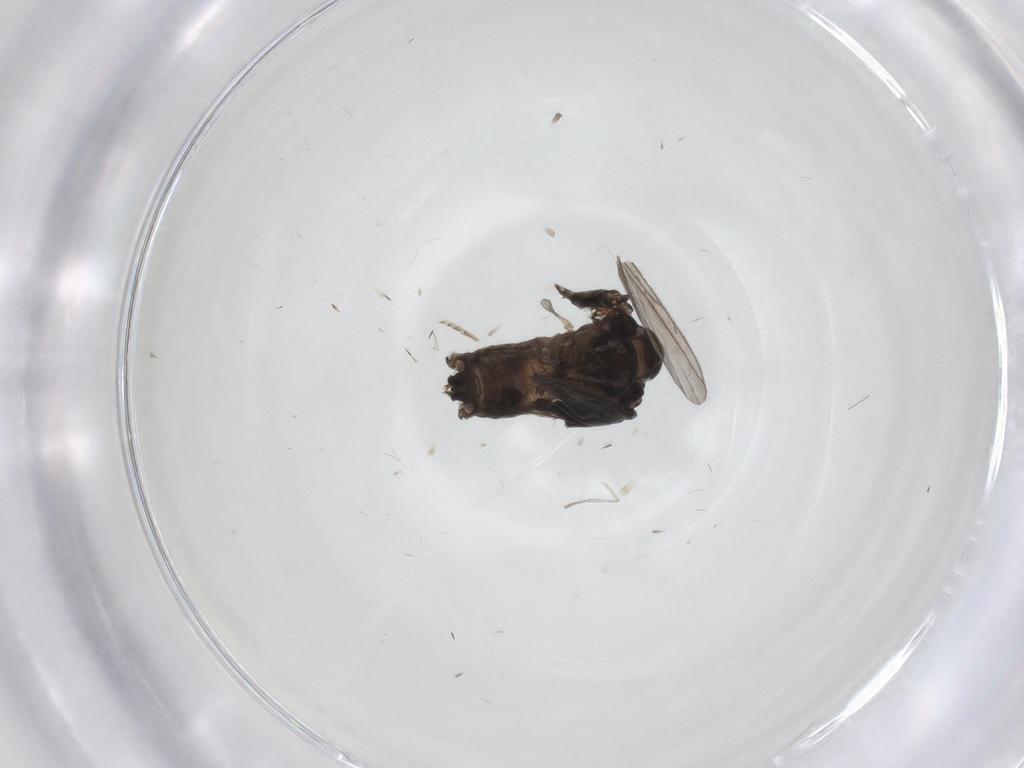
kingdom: Animalia
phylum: Arthropoda
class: Insecta
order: Diptera
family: Psychodidae
